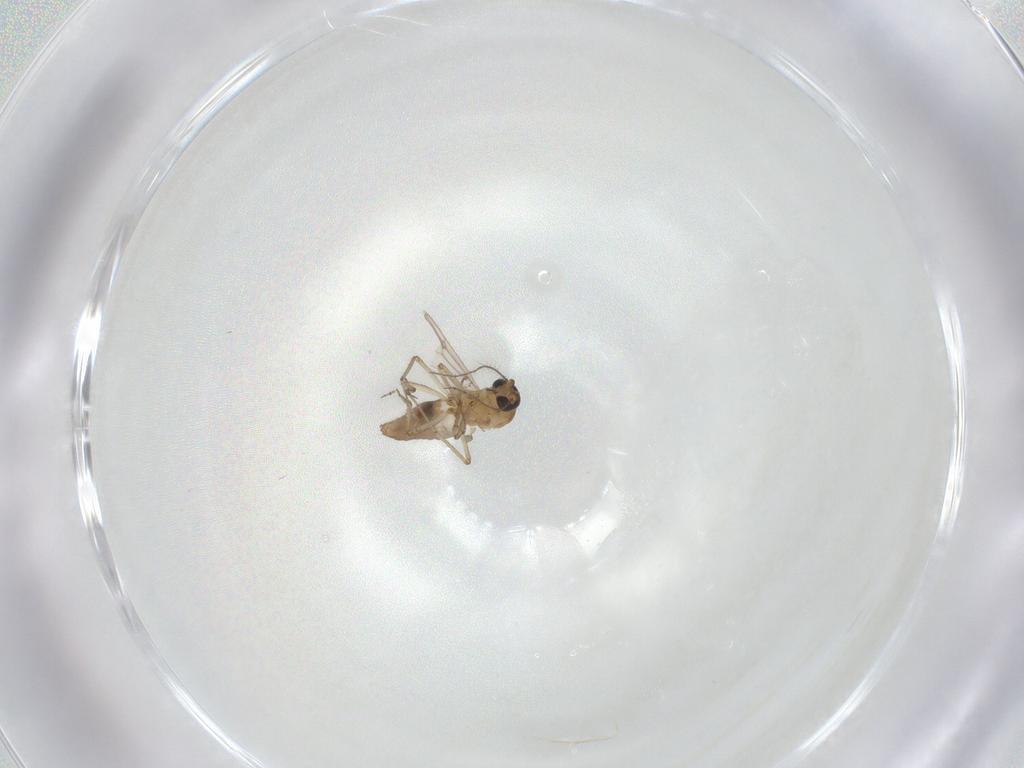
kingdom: Animalia
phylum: Arthropoda
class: Insecta
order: Diptera
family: Ceratopogonidae
